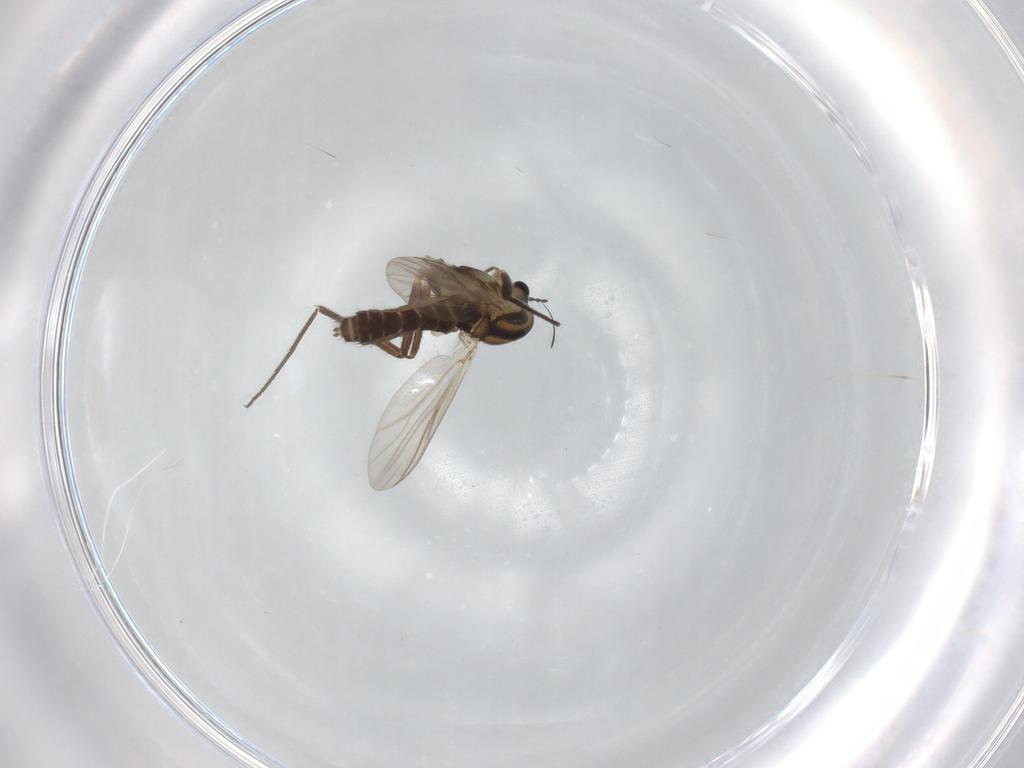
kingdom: Animalia
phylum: Arthropoda
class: Insecta
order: Diptera
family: Chironomidae
